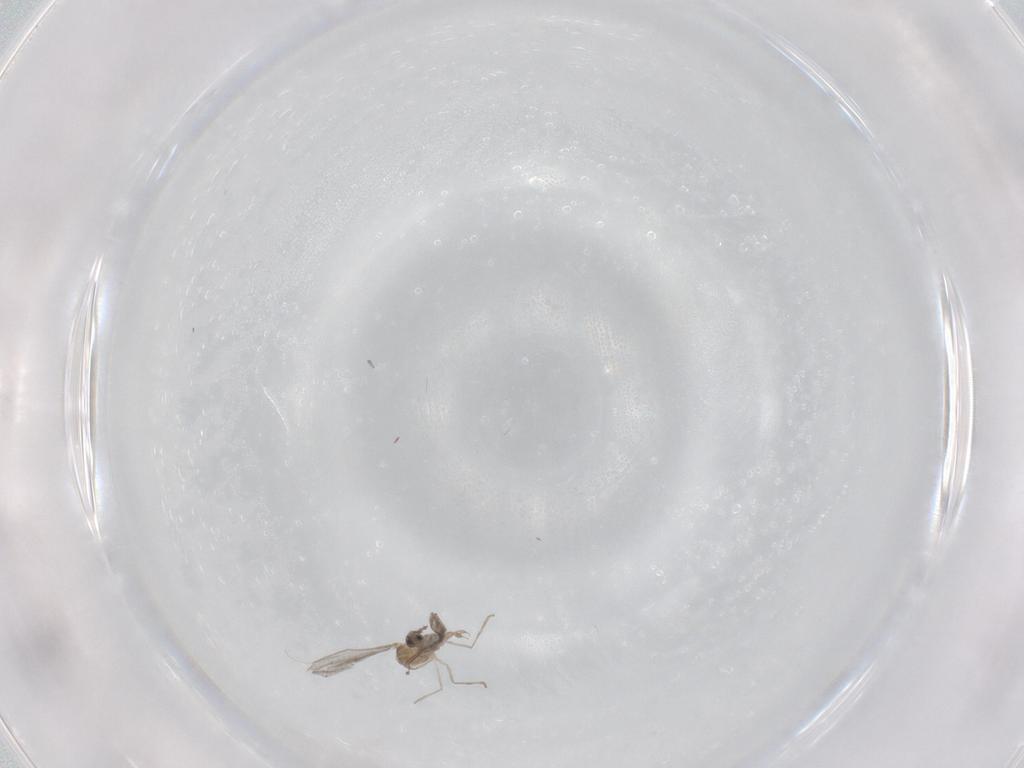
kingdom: Animalia
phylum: Arthropoda
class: Insecta
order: Diptera
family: Cecidomyiidae
